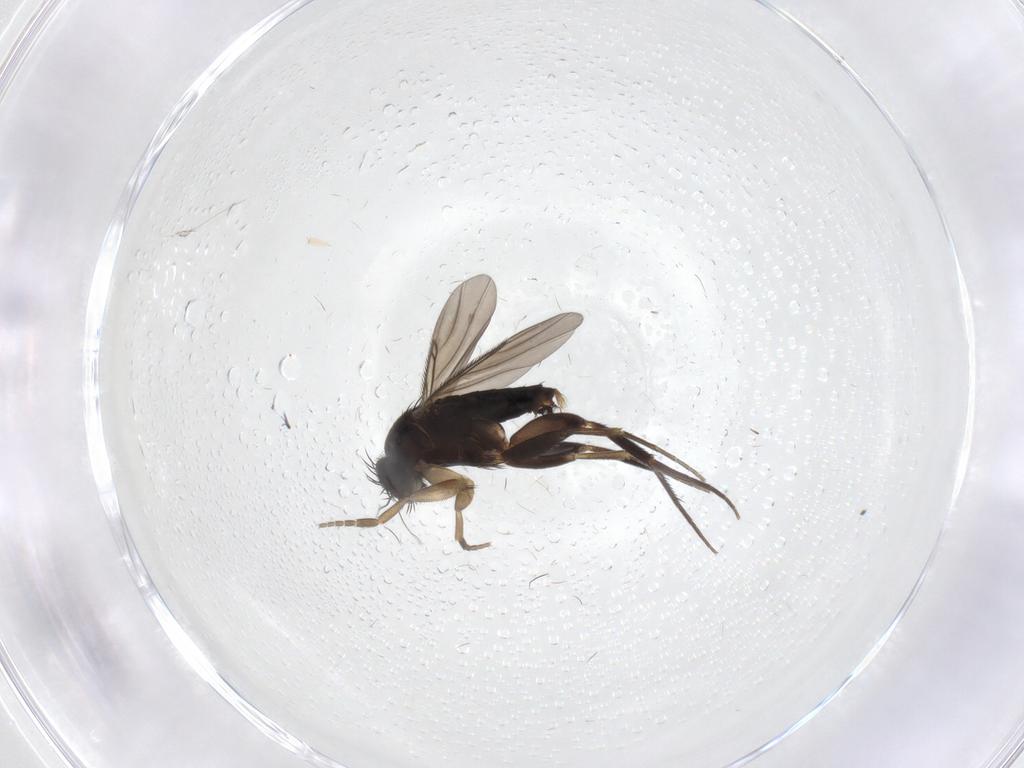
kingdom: Animalia
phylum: Arthropoda
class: Insecta
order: Diptera
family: Phoridae
